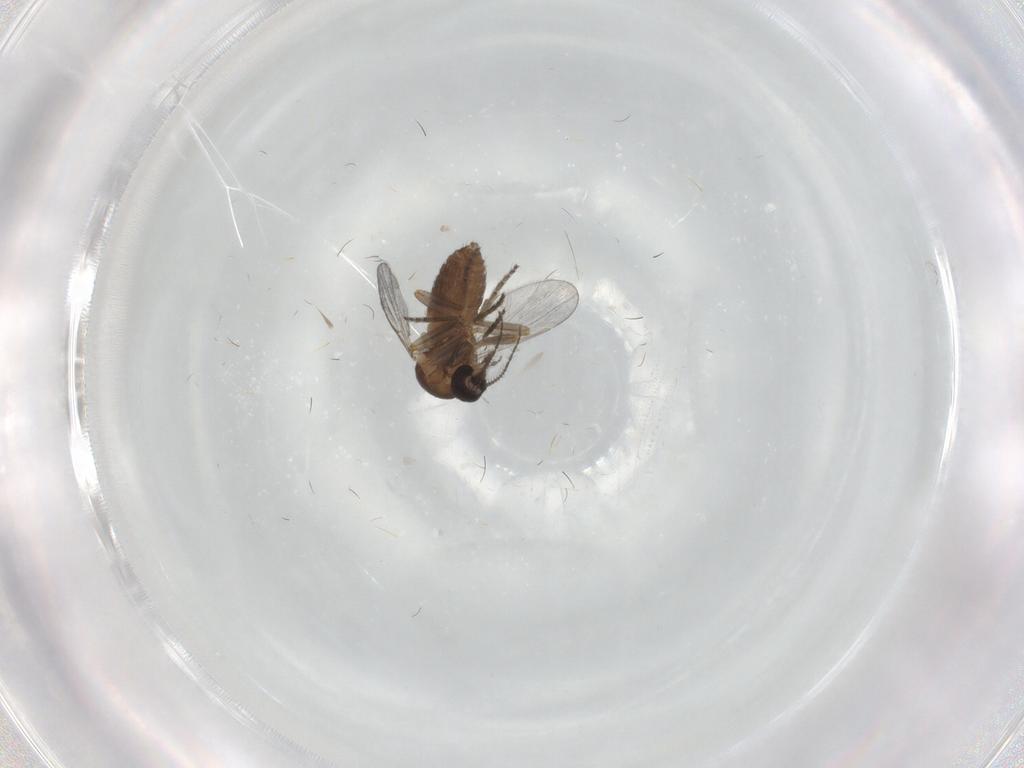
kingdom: Animalia
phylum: Arthropoda
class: Insecta
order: Diptera
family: Ceratopogonidae
